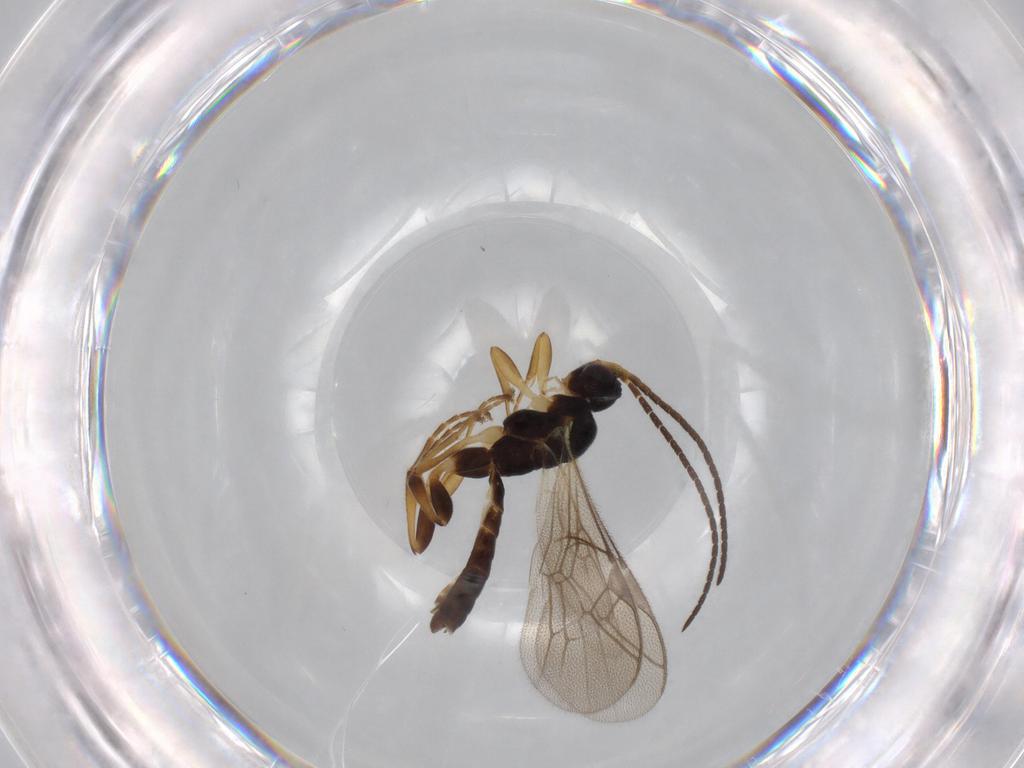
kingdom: Animalia
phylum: Arthropoda
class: Insecta
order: Hymenoptera
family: Ichneumonidae
